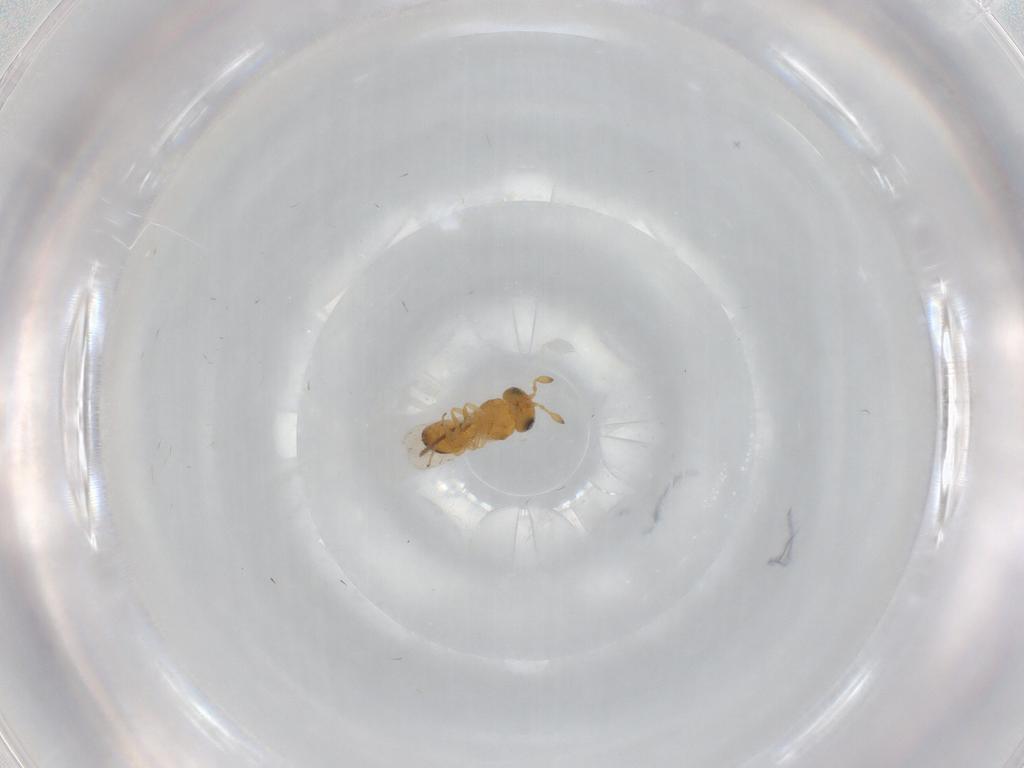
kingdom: Animalia
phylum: Arthropoda
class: Insecta
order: Hymenoptera
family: Scelionidae
